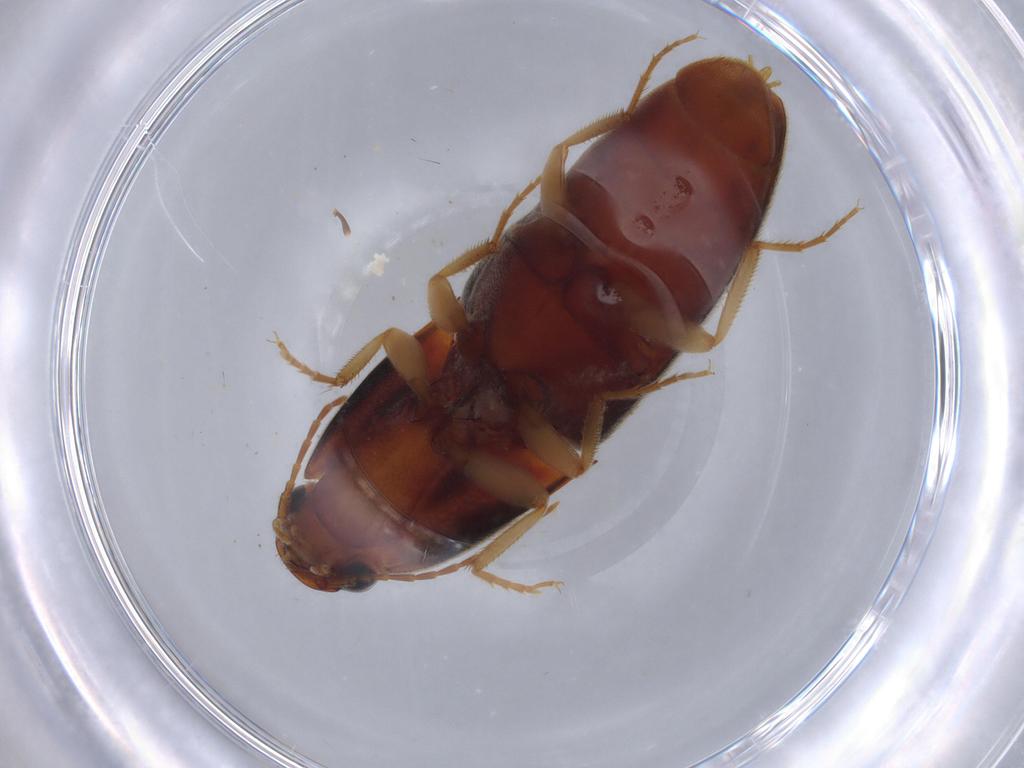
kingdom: Animalia
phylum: Arthropoda
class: Insecta
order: Coleoptera
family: Elateridae
